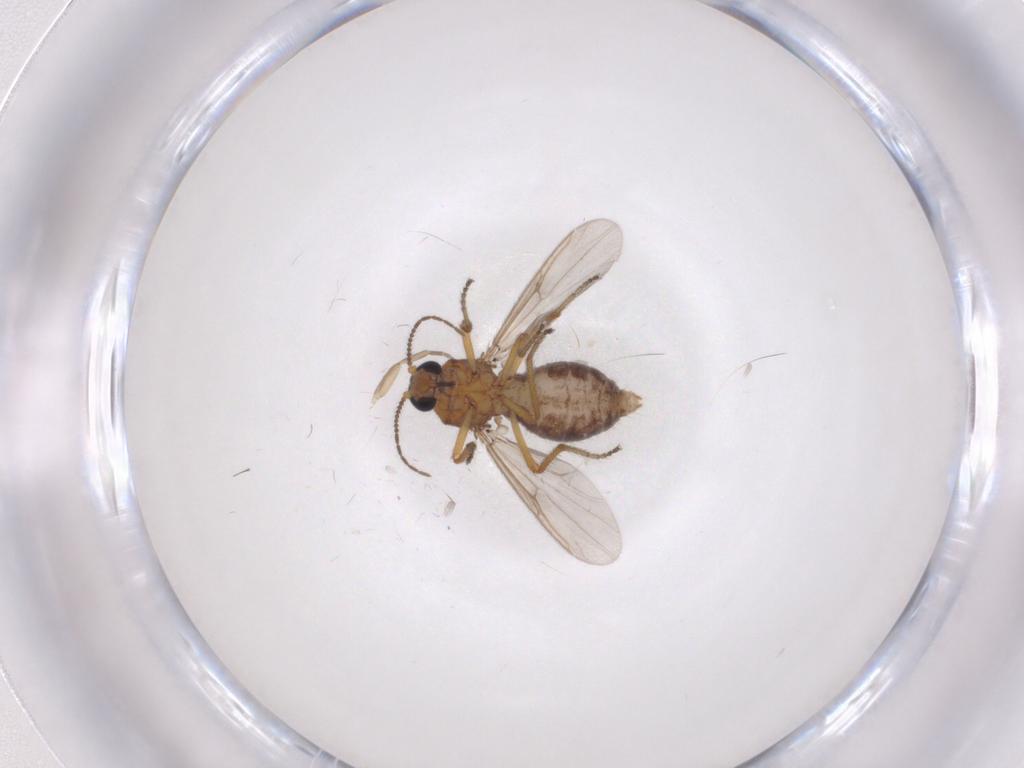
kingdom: Animalia
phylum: Arthropoda
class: Insecta
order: Diptera
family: Ceratopogonidae
